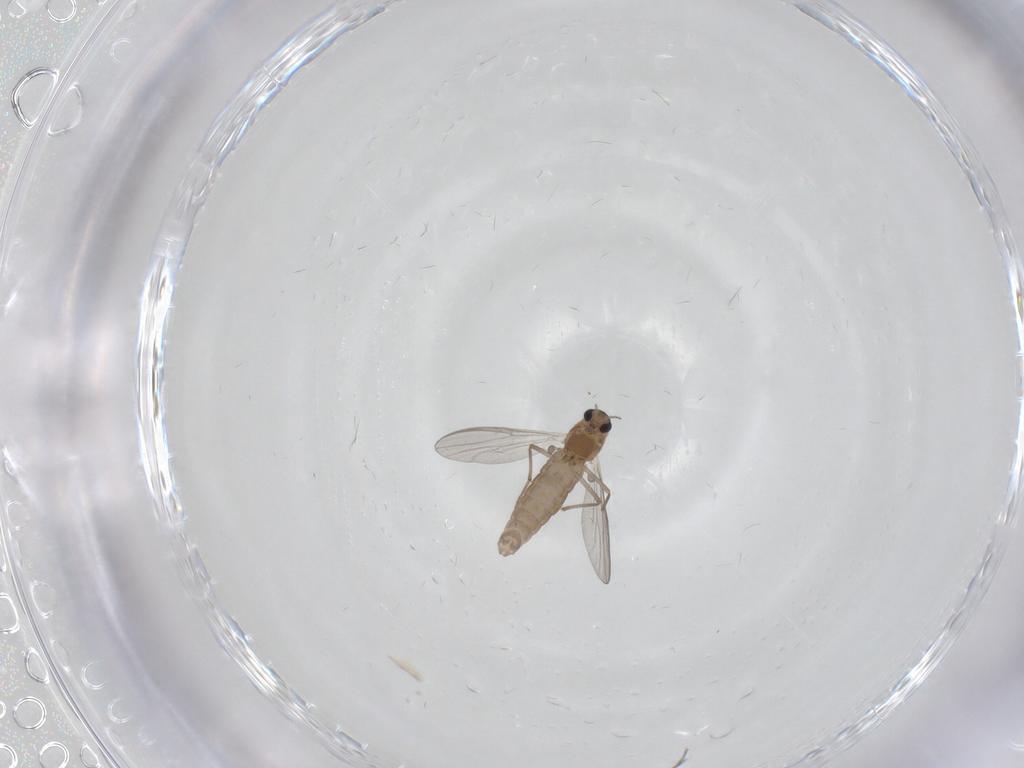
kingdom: Animalia
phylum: Arthropoda
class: Insecta
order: Diptera
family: Chironomidae
